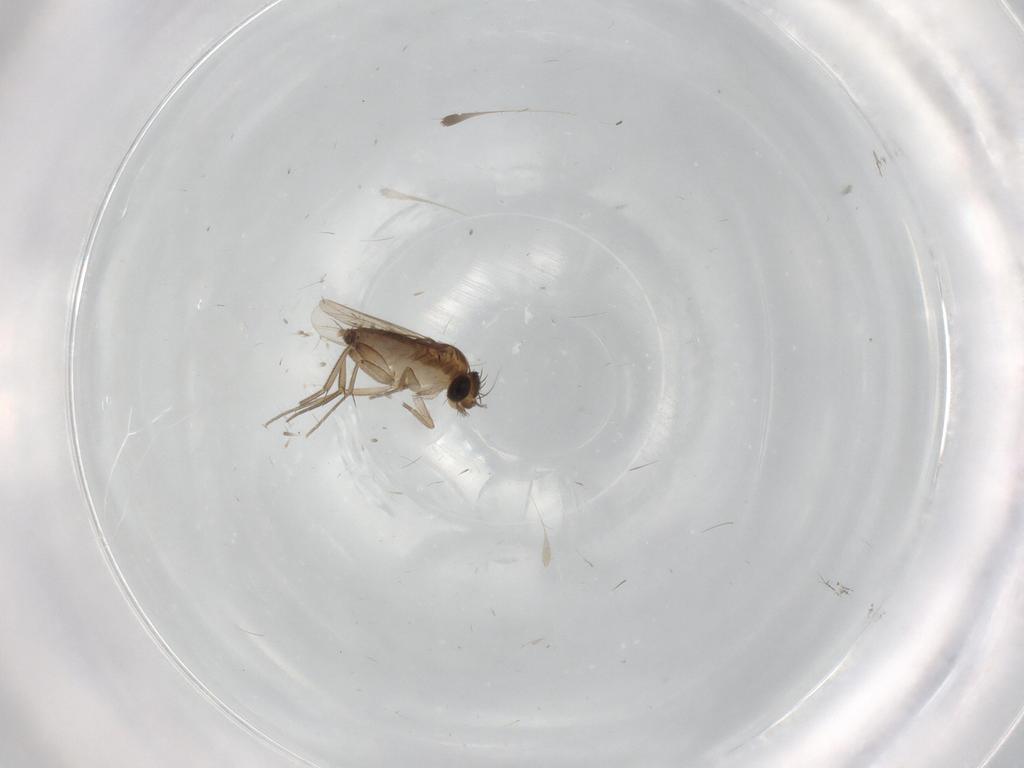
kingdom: Animalia
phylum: Arthropoda
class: Insecta
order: Diptera
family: Phoridae
